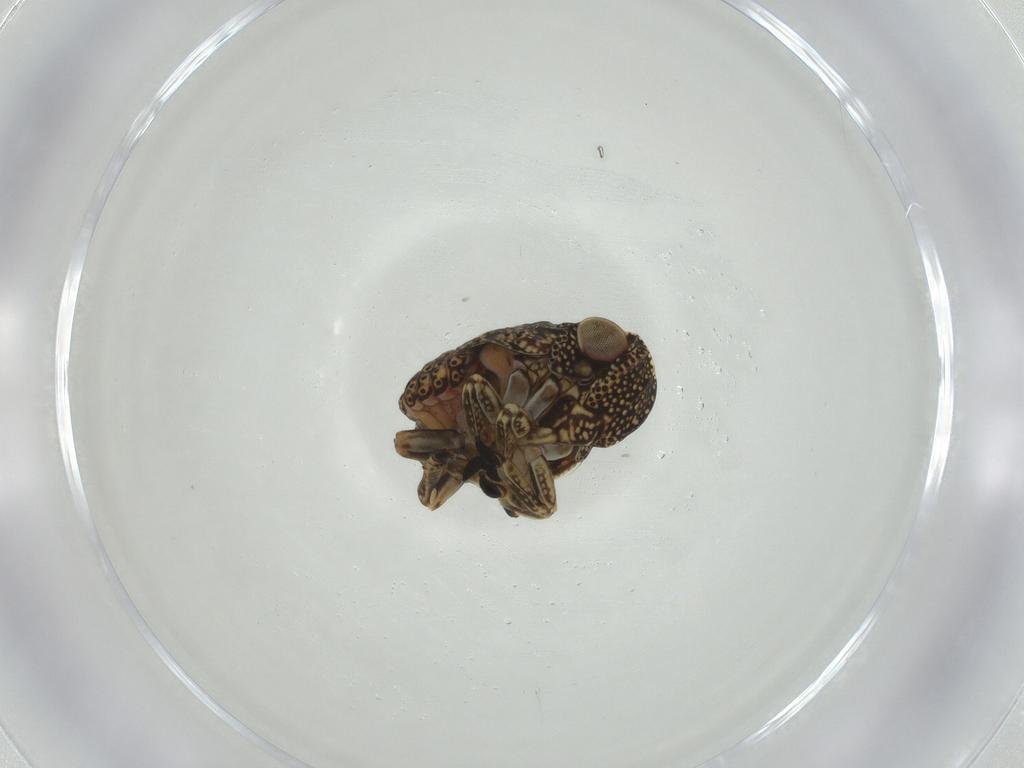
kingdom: Animalia
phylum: Arthropoda
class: Insecta
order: Hemiptera
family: Fulgoroidea_incertae_sedis
